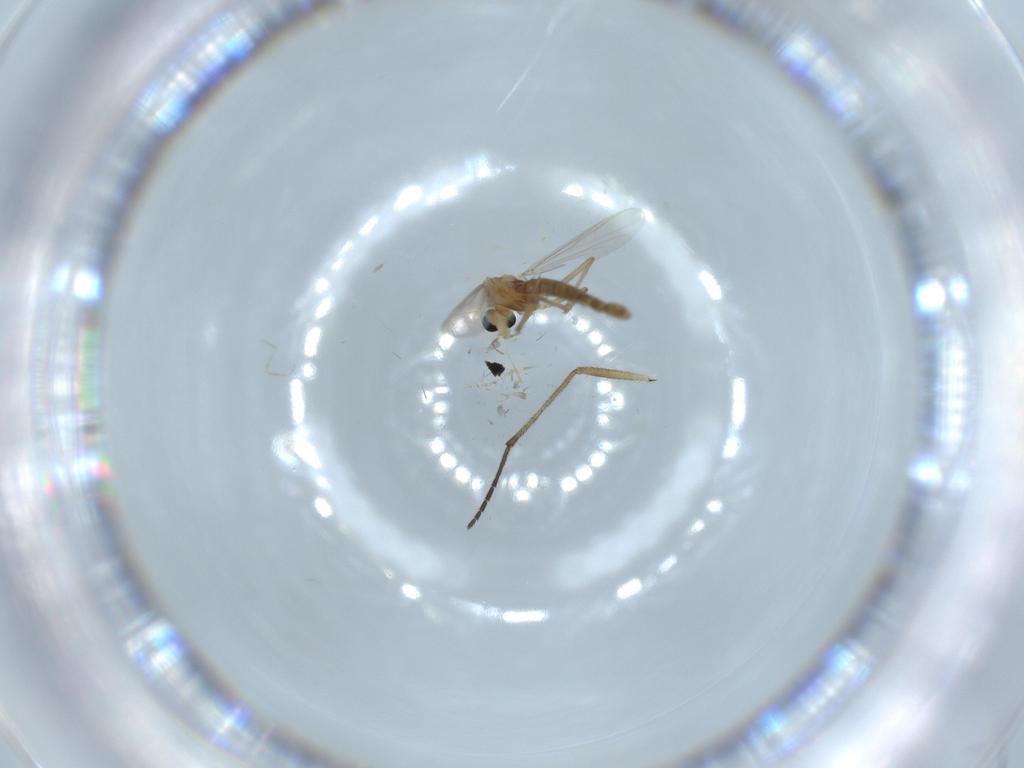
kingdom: Animalia
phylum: Arthropoda
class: Insecta
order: Diptera
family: Chironomidae
